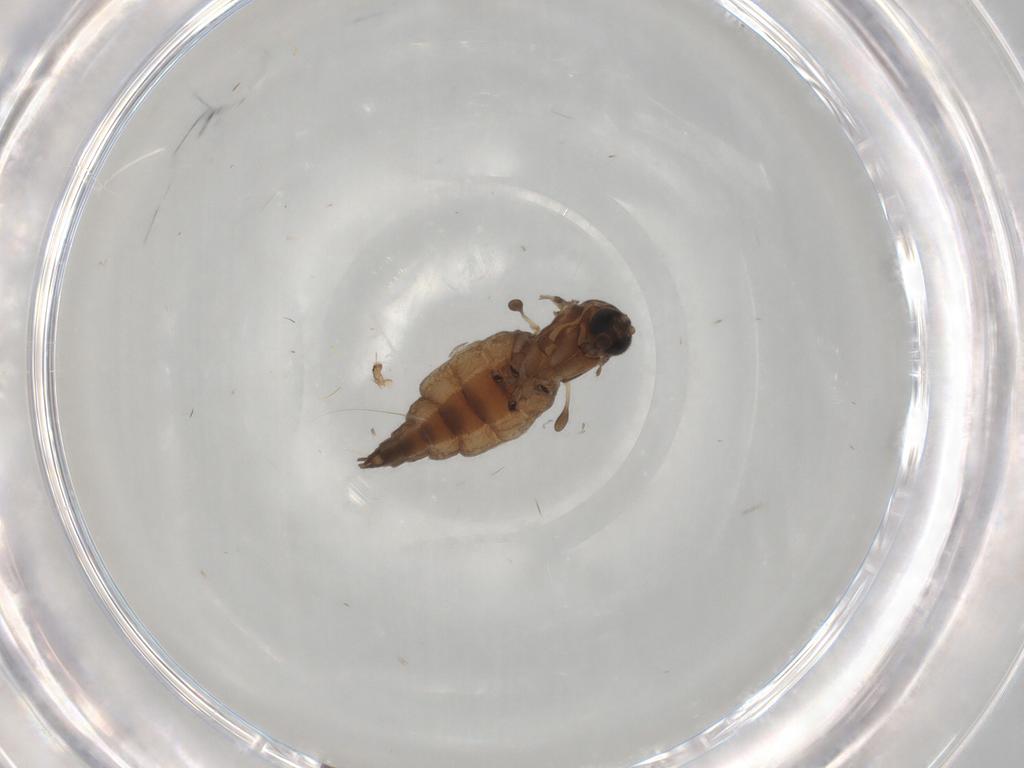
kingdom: Animalia
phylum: Arthropoda
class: Insecta
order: Diptera
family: Sciaridae
